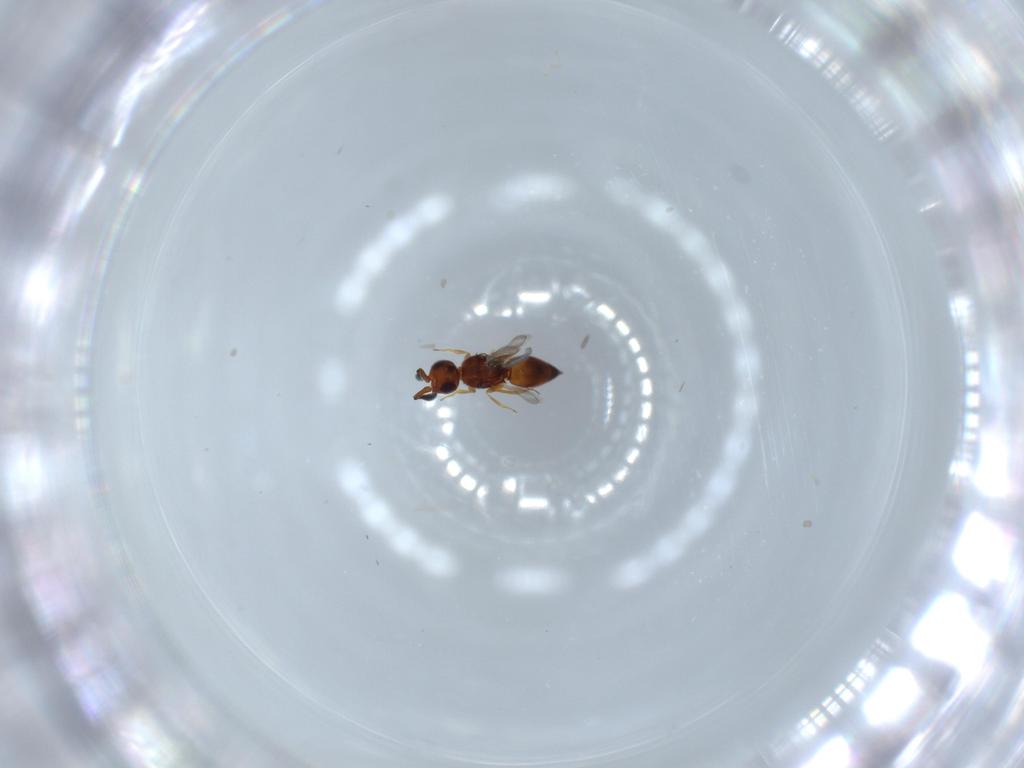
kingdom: Animalia
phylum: Arthropoda
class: Insecta
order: Hymenoptera
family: Ceraphronidae
